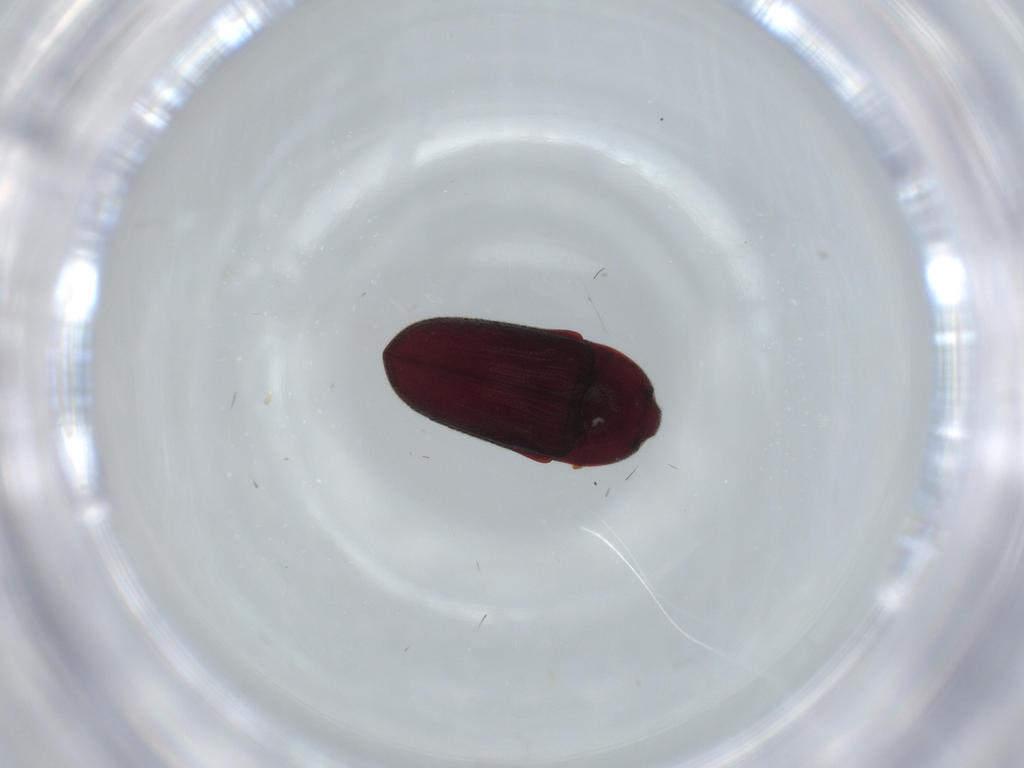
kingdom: Animalia
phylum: Arthropoda
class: Insecta
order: Coleoptera
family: Throscidae
